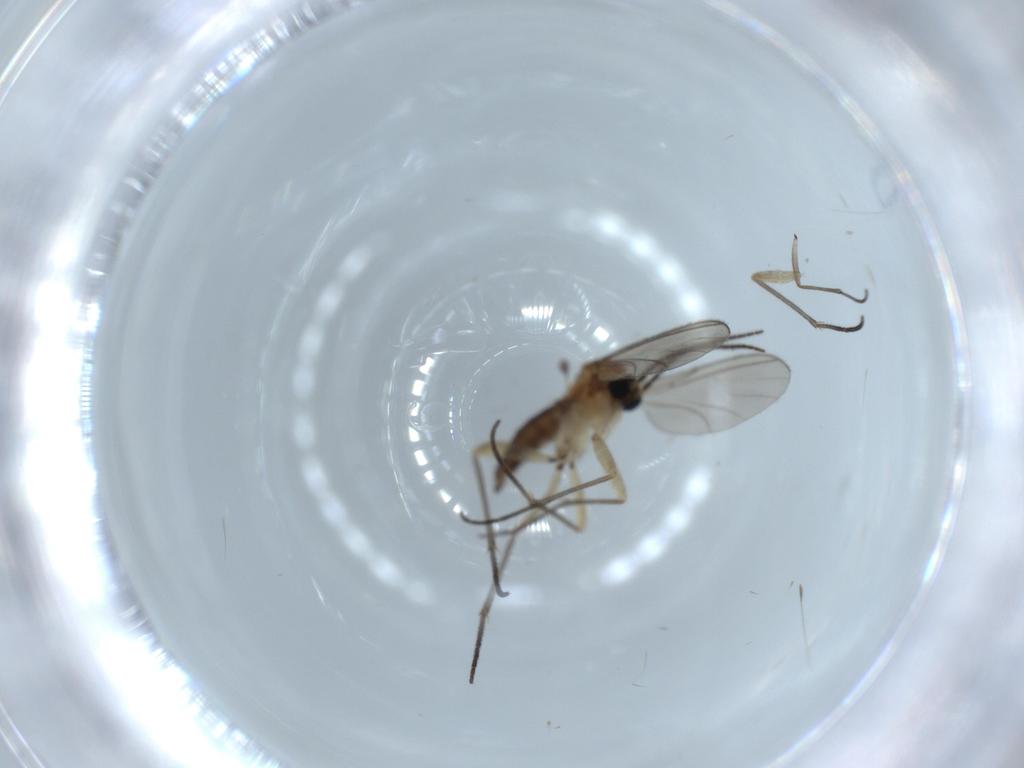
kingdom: Animalia
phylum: Arthropoda
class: Insecta
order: Diptera
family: Sciaridae
